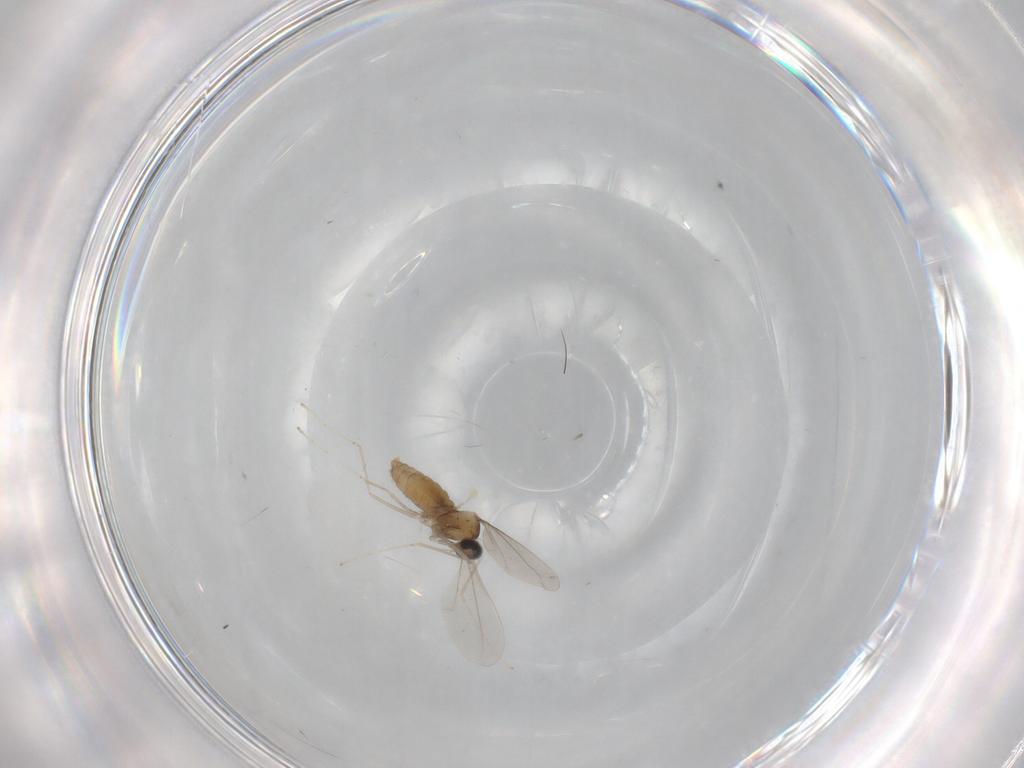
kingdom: Animalia
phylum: Arthropoda
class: Insecta
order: Diptera
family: Cecidomyiidae
